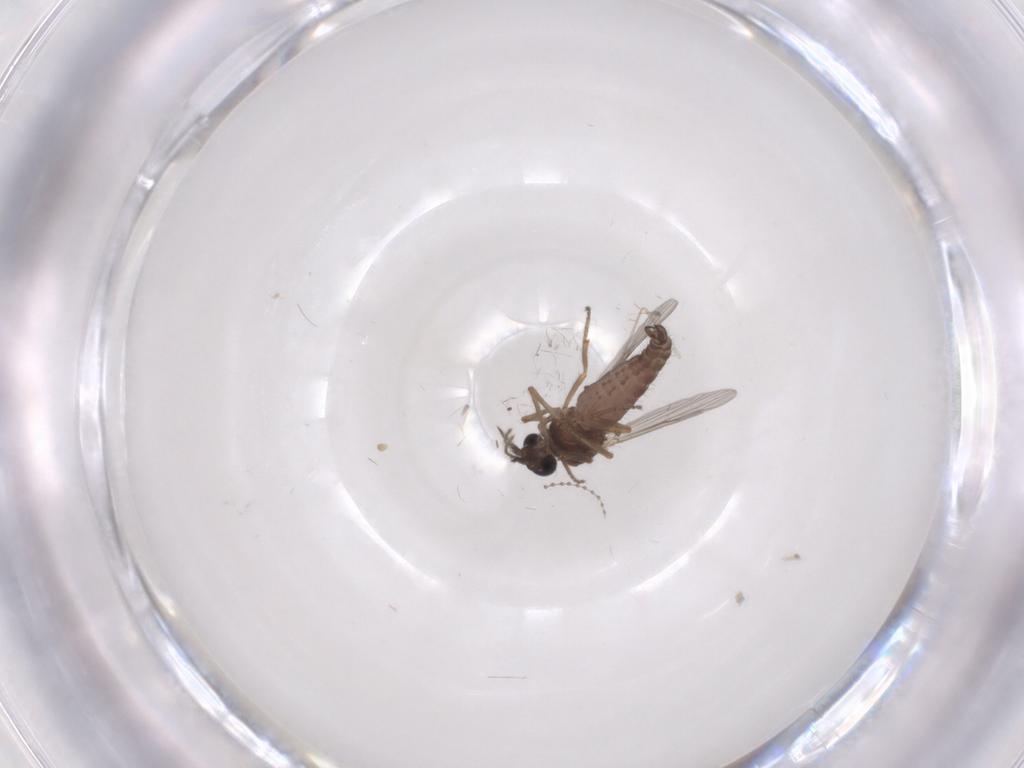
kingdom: Animalia
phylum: Arthropoda
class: Insecta
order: Diptera
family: Ceratopogonidae
